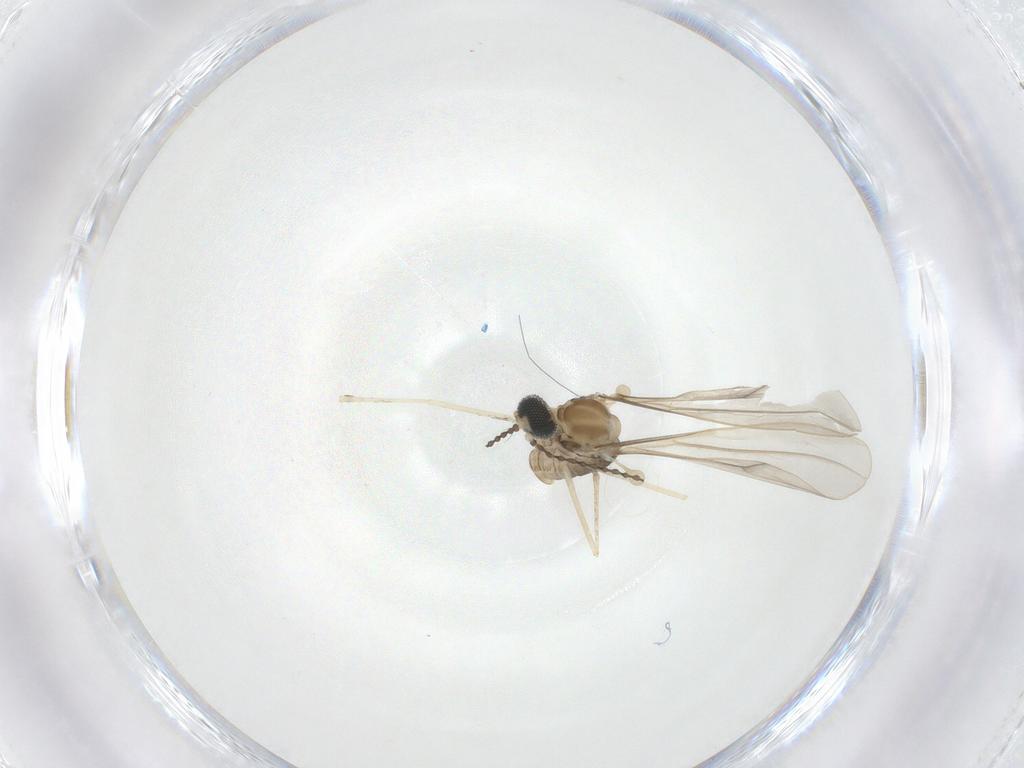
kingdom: Animalia
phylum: Arthropoda
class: Insecta
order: Diptera
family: Cecidomyiidae
